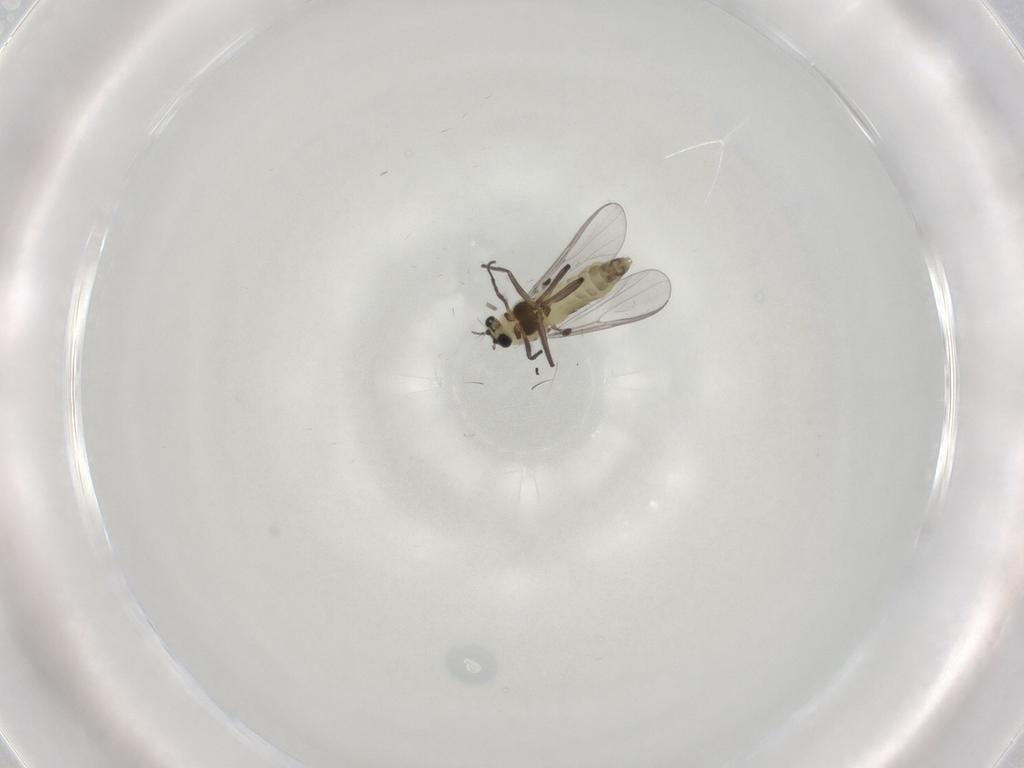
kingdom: Animalia
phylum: Arthropoda
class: Insecta
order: Diptera
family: Chironomidae
